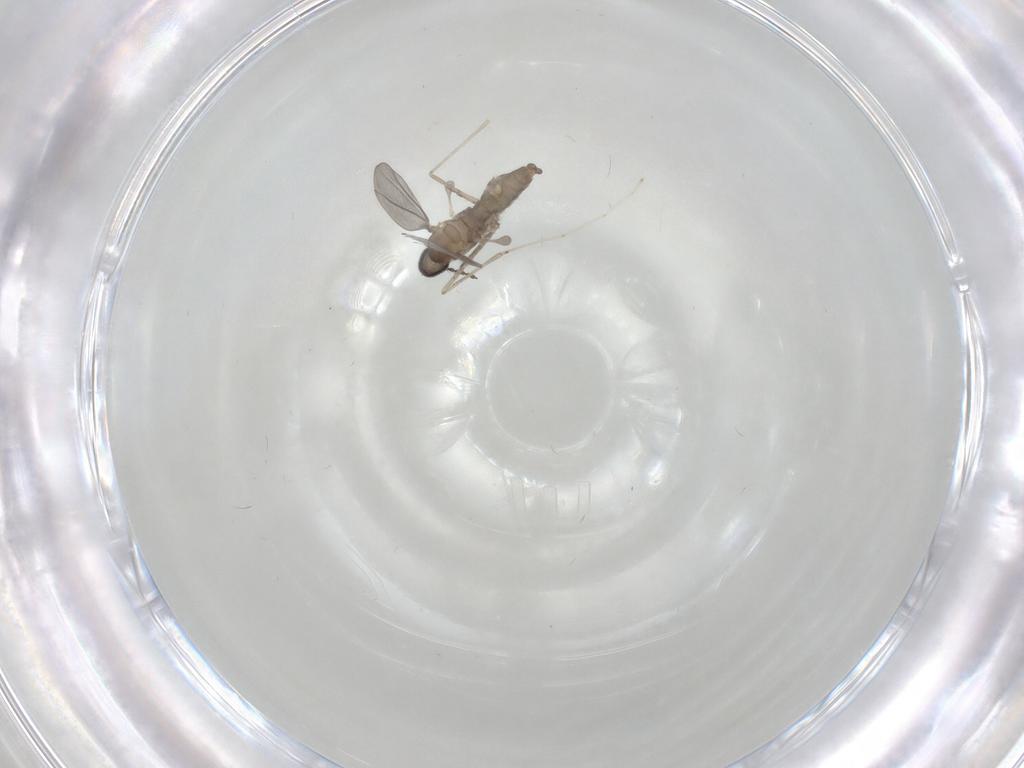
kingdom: Animalia
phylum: Arthropoda
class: Insecta
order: Diptera
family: Cecidomyiidae
